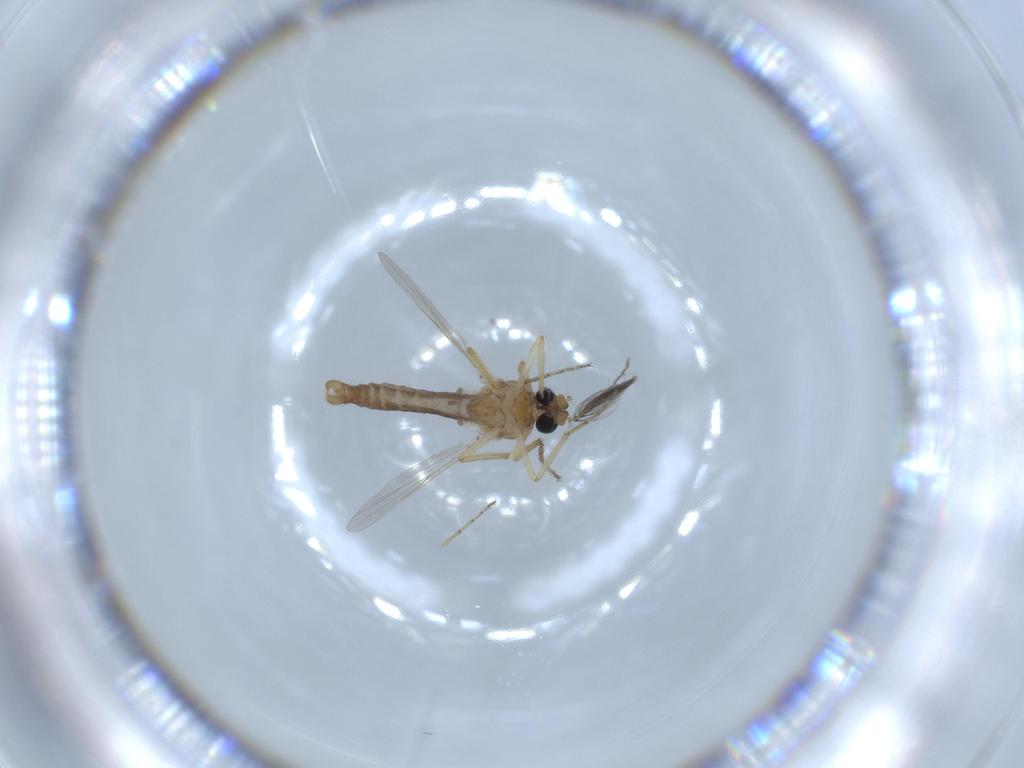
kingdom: Animalia
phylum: Arthropoda
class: Insecta
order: Diptera
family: Ceratopogonidae
